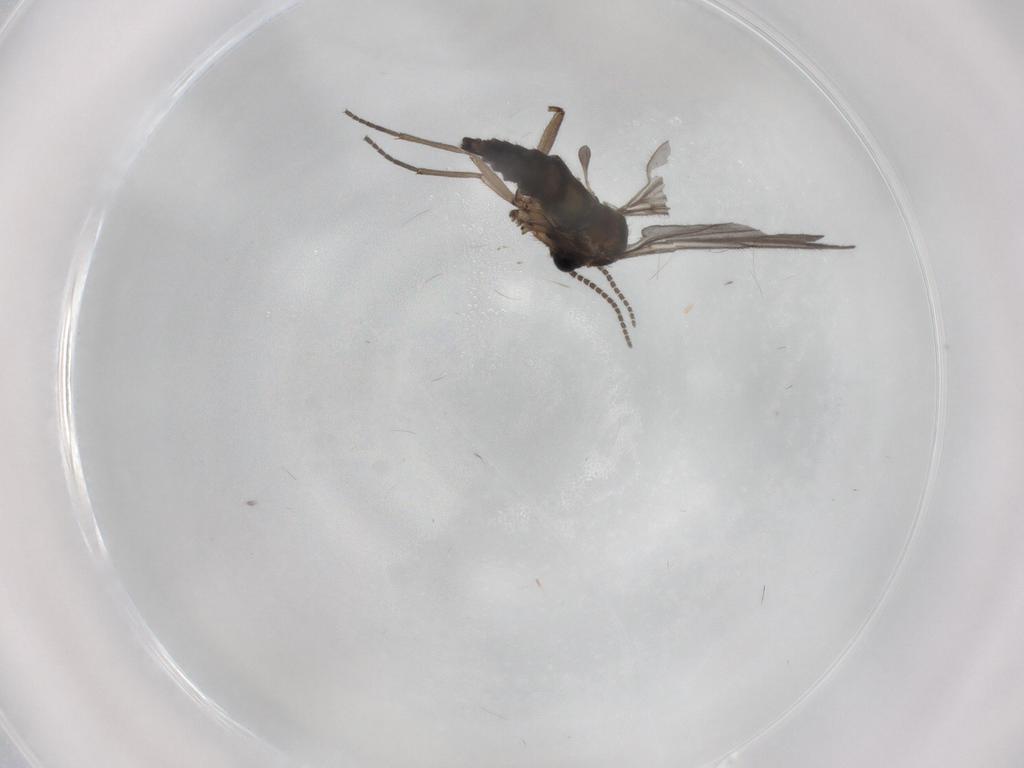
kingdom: Animalia
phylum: Arthropoda
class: Insecta
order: Diptera
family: Sciaridae
